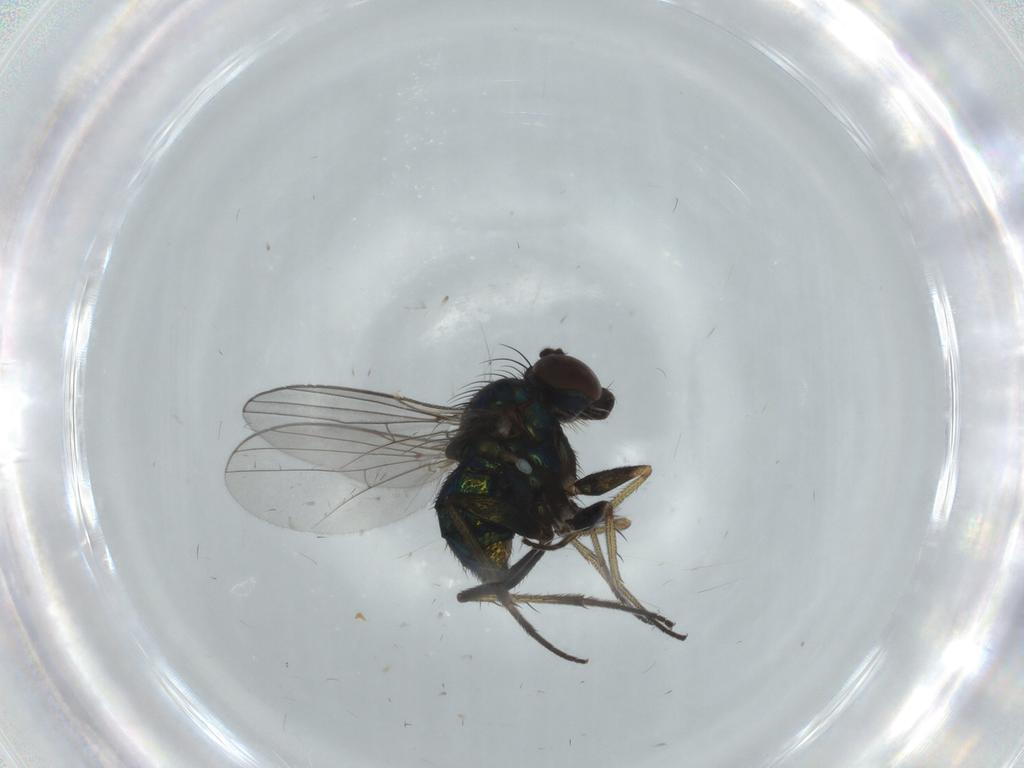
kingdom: Animalia
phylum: Arthropoda
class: Insecta
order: Diptera
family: Dolichopodidae
